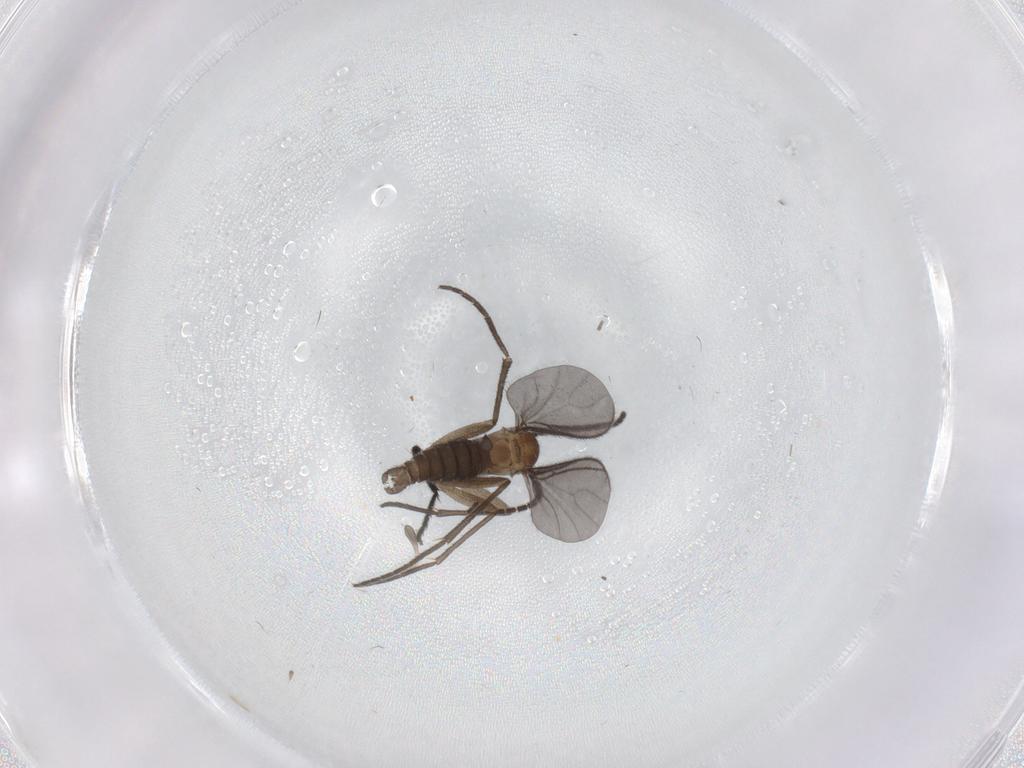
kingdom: Animalia
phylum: Arthropoda
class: Insecta
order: Diptera
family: Sciaridae
